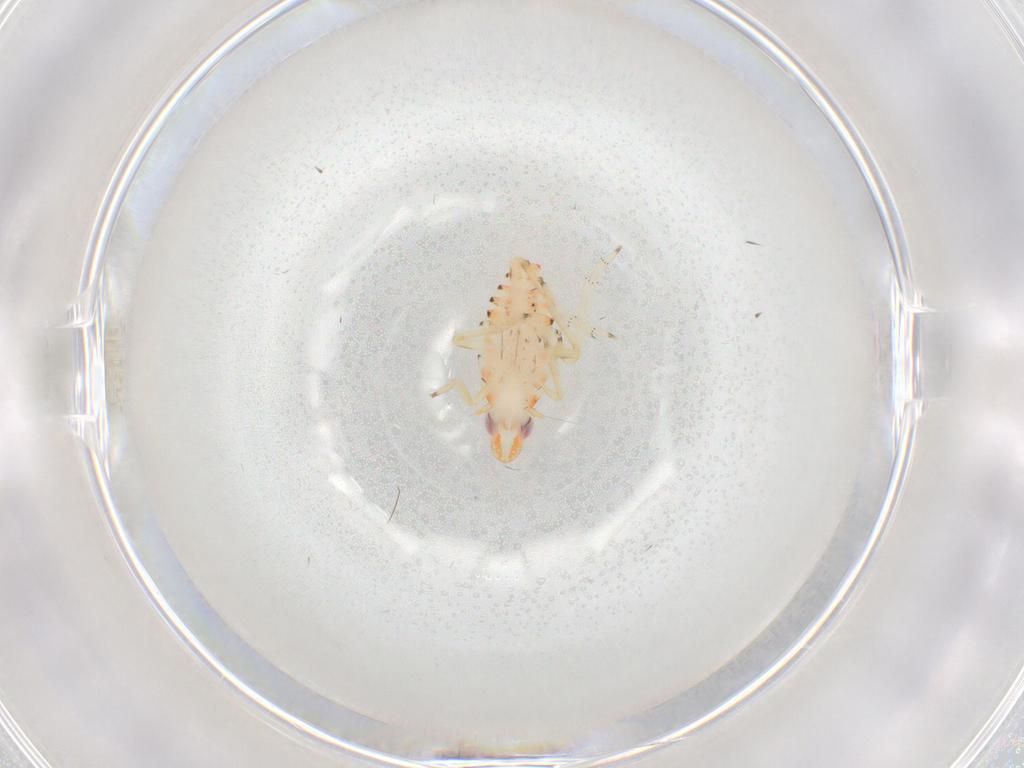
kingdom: Animalia
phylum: Arthropoda
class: Insecta
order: Hemiptera
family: Tropiduchidae
